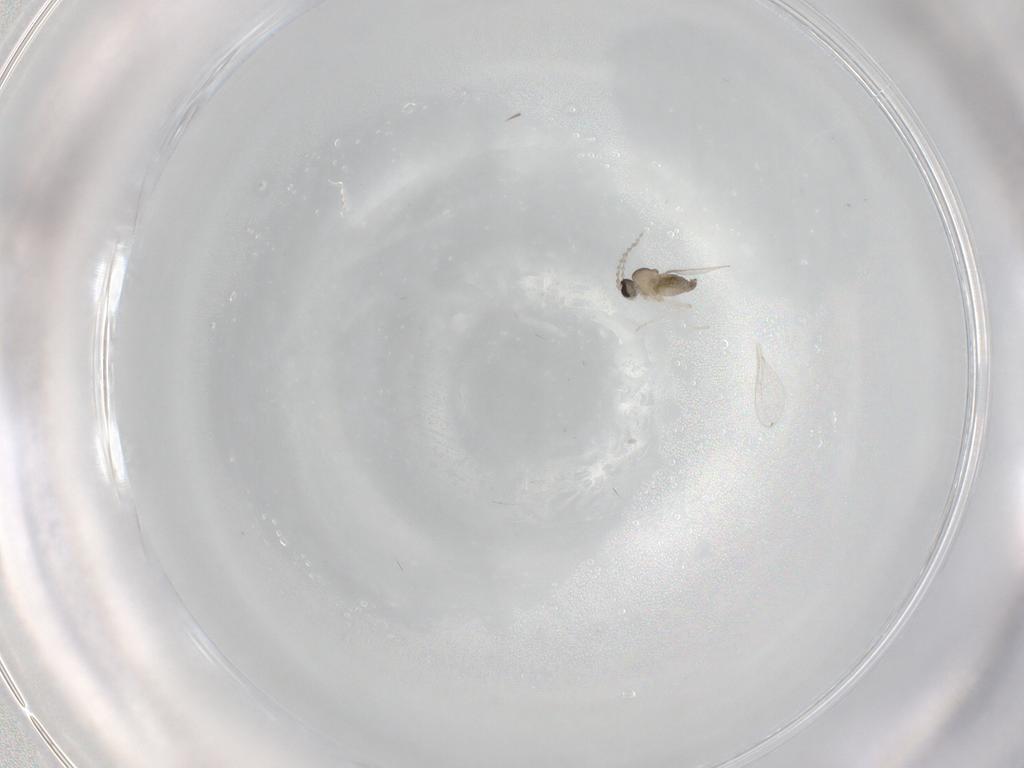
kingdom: Animalia
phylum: Arthropoda
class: Insecta
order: Diptera
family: Cecidomyiidae
